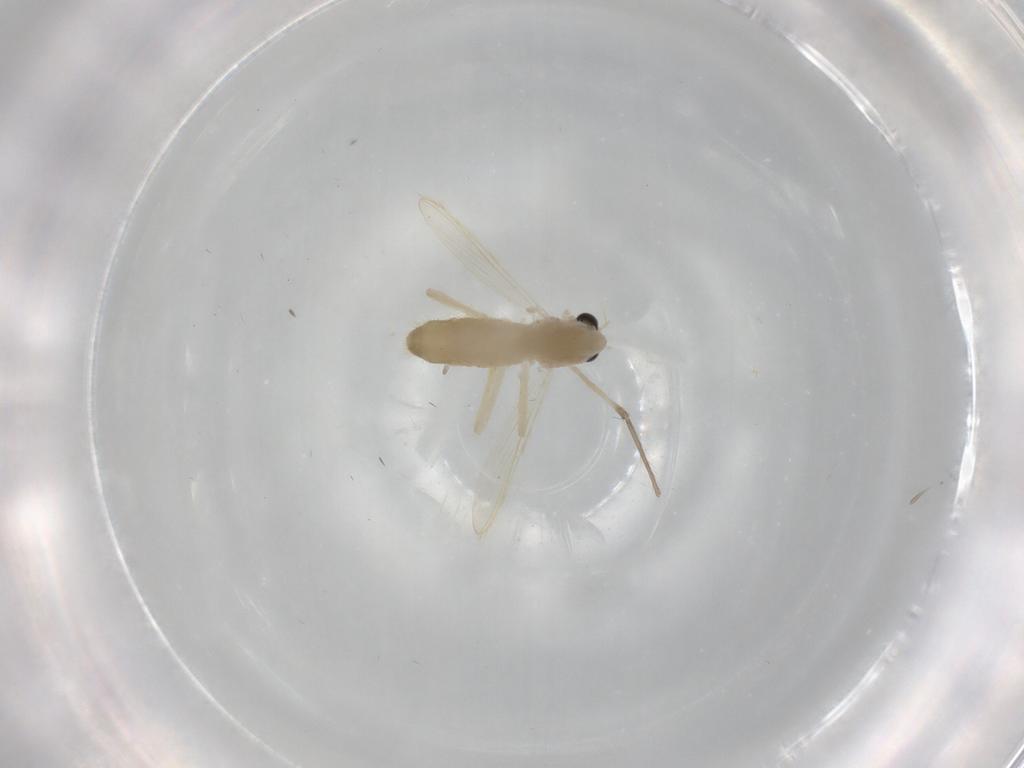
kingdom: Animalia
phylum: Arthropoda
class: Insecta
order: Diptera
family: Chironomidae
